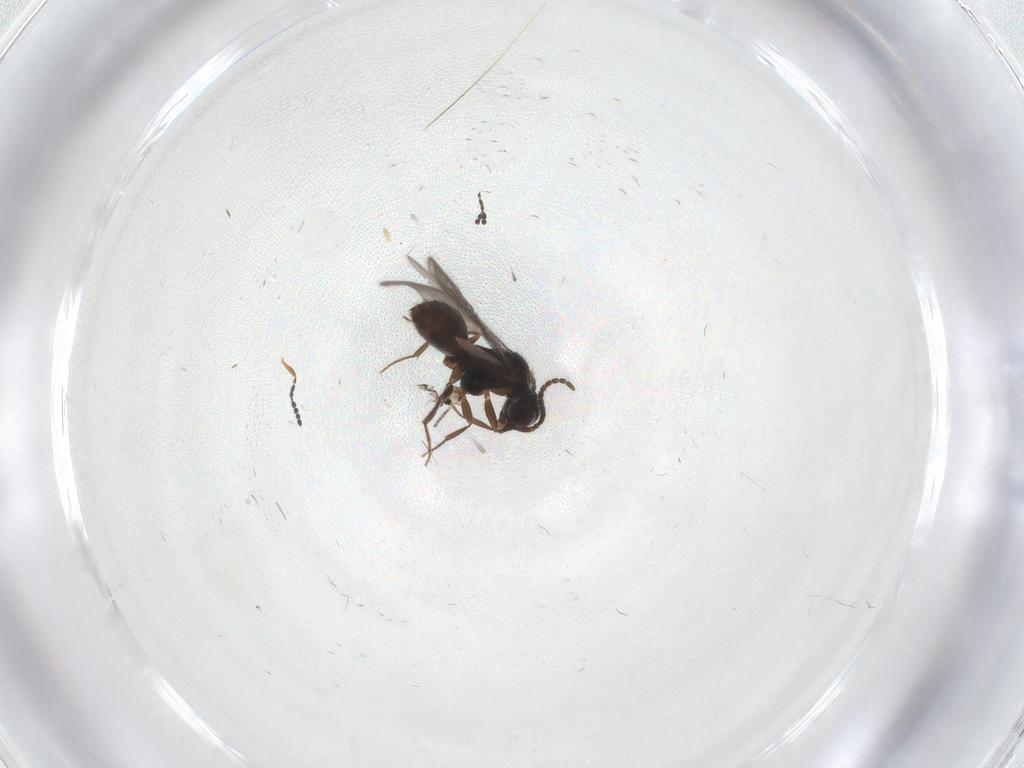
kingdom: Animalia
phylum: Arthropoda
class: Insecta
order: Hymenoptera
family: Bethylidae
